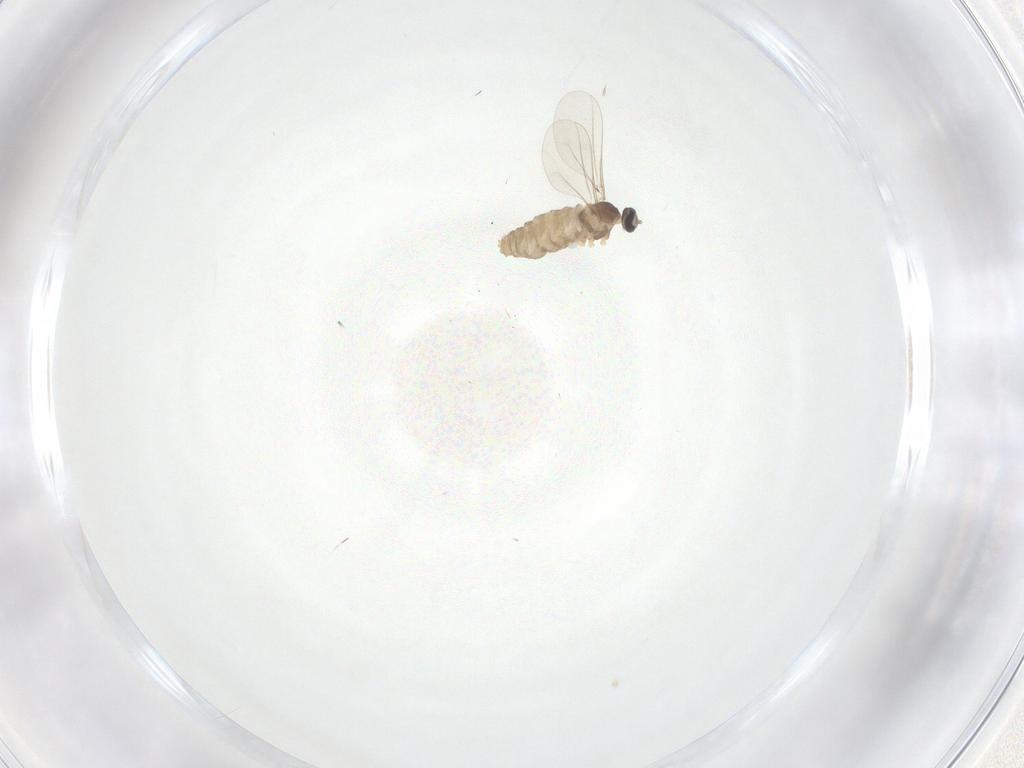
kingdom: Animalia
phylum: Arthropoda
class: Insecta
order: Diptera
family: Cecidomyiidae
